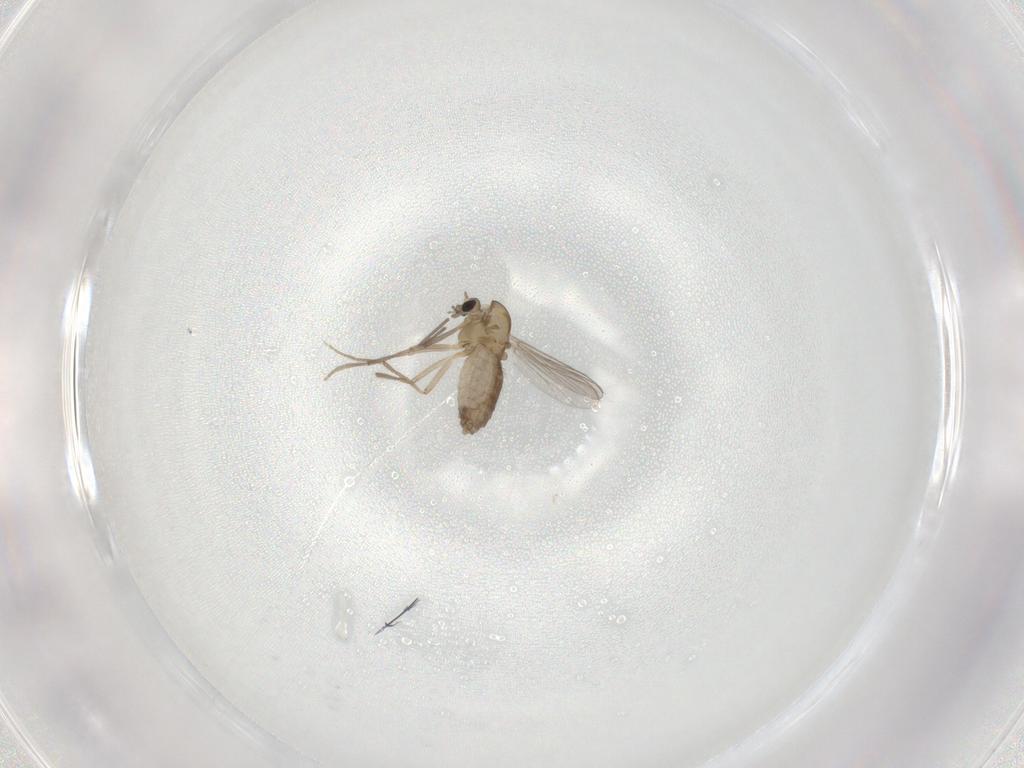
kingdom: Animalia
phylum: Arthropoda
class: Insecta
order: Diptera
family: Chironomidae
